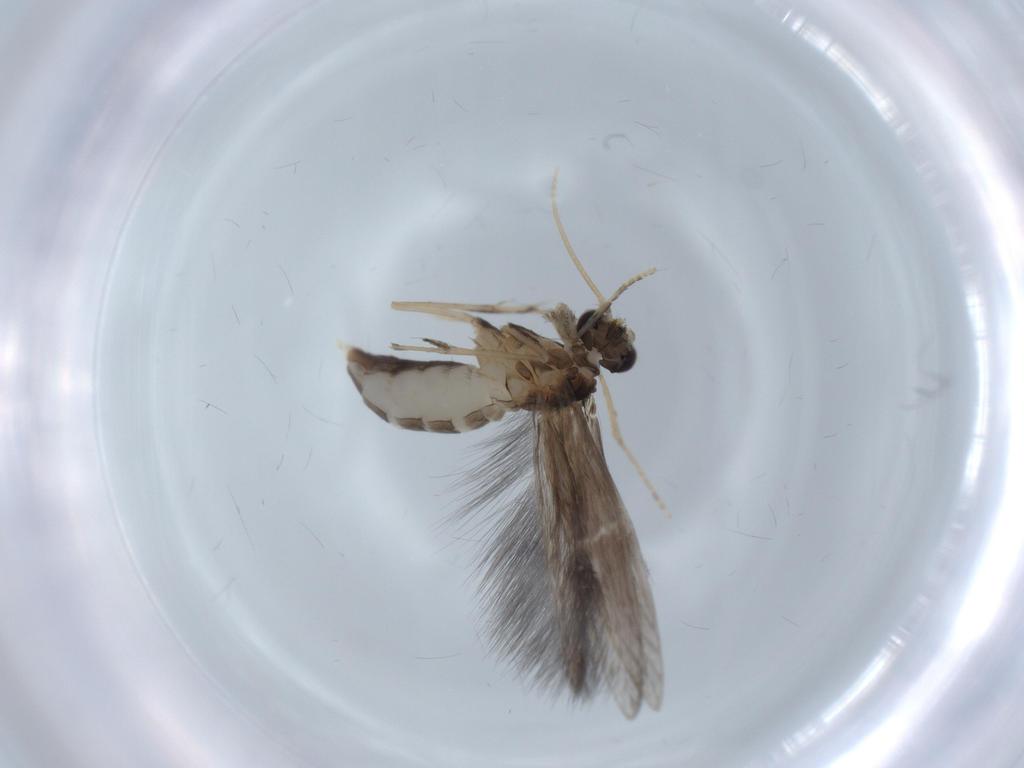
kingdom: Animalia
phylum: Arthropoda
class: Insecta
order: Trichoptera
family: Hydroptilidae
